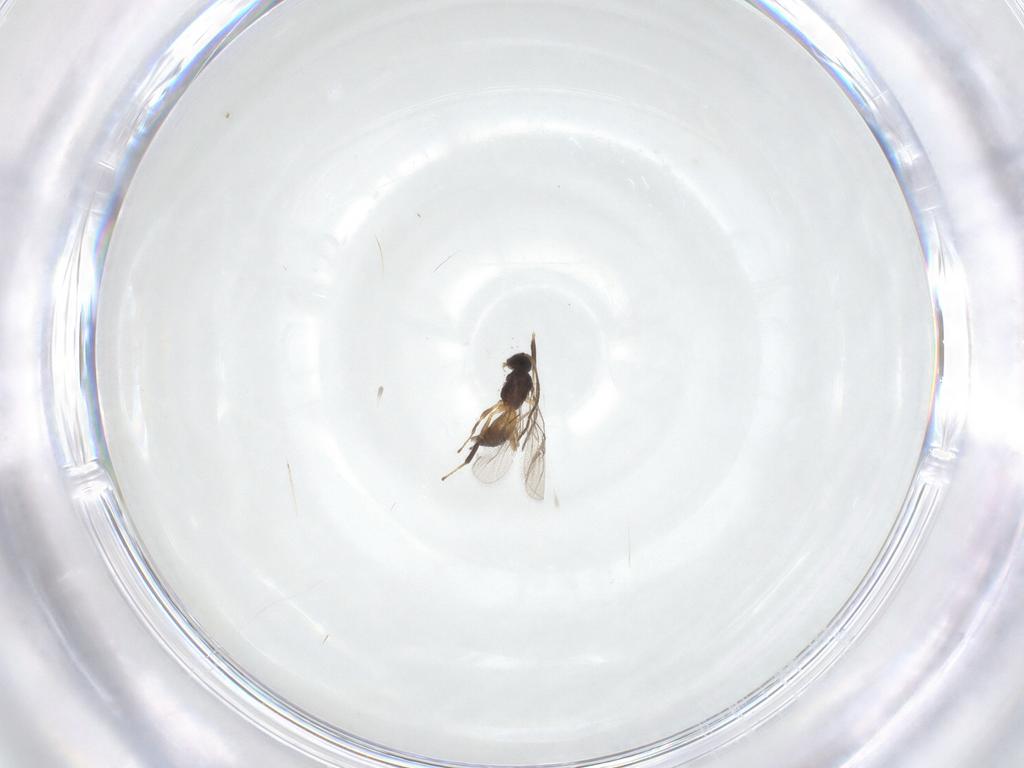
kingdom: Animalia
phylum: Arthropoda
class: Insecta
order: Hymenoptera
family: Braconidae
